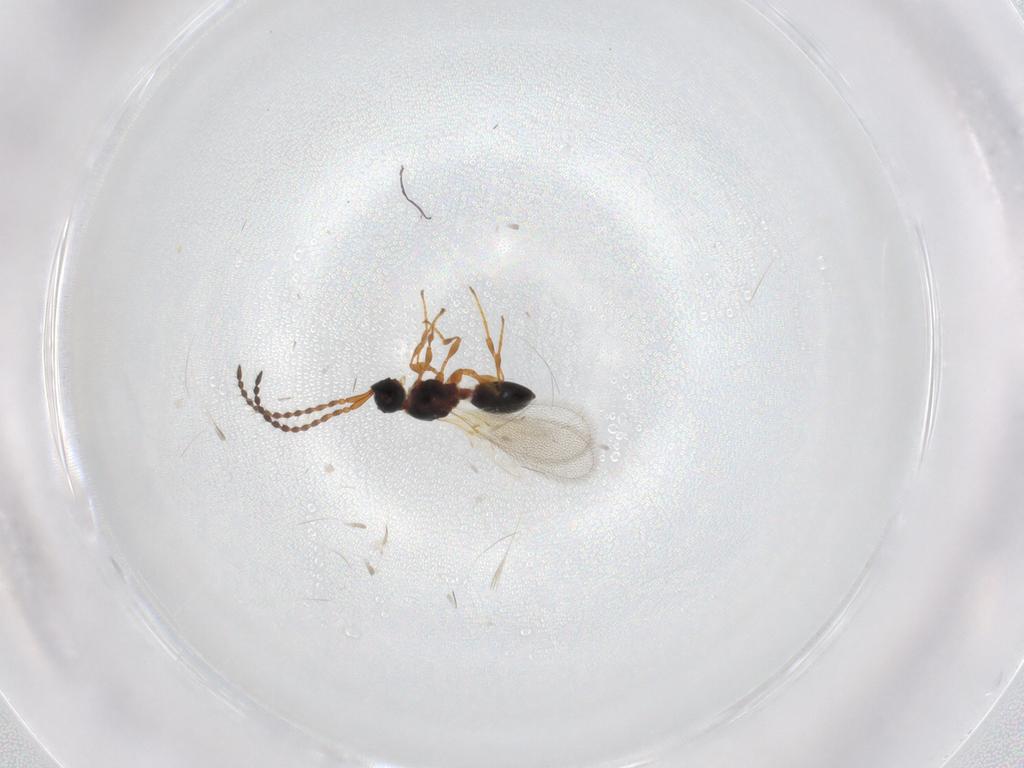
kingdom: Animalia
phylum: Arthropoda
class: Insecta
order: Hymenoptera
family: Diapriidae
